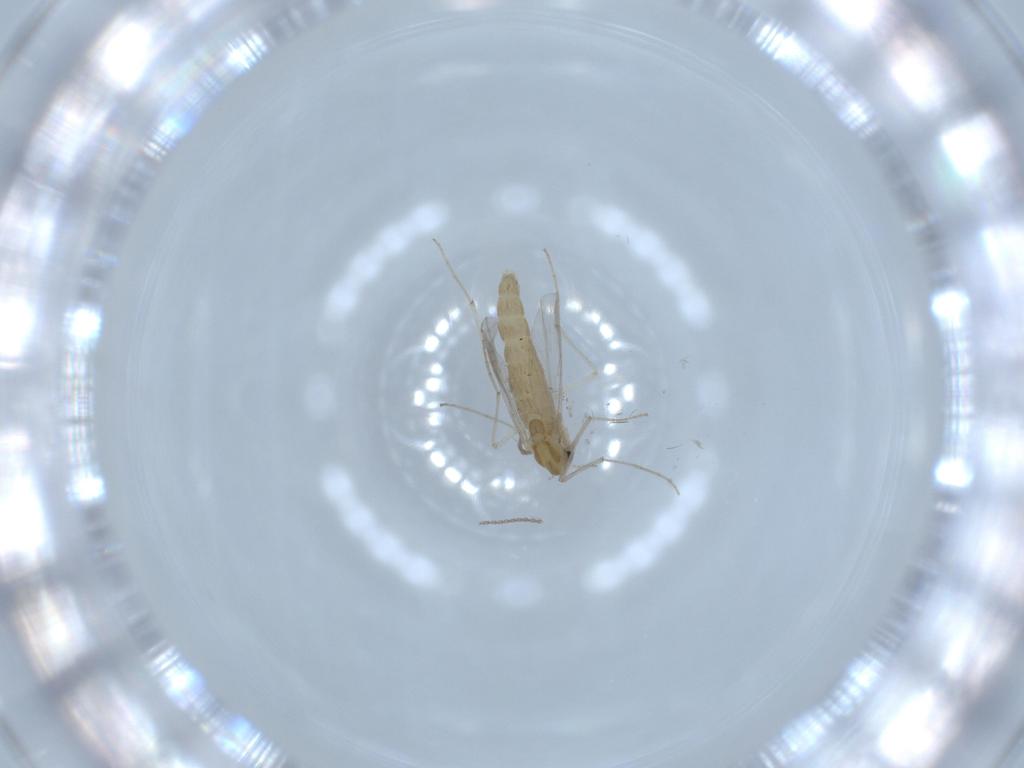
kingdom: Animalia
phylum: Arthropoda
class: Insecta
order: Diptera
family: Chironomidae
